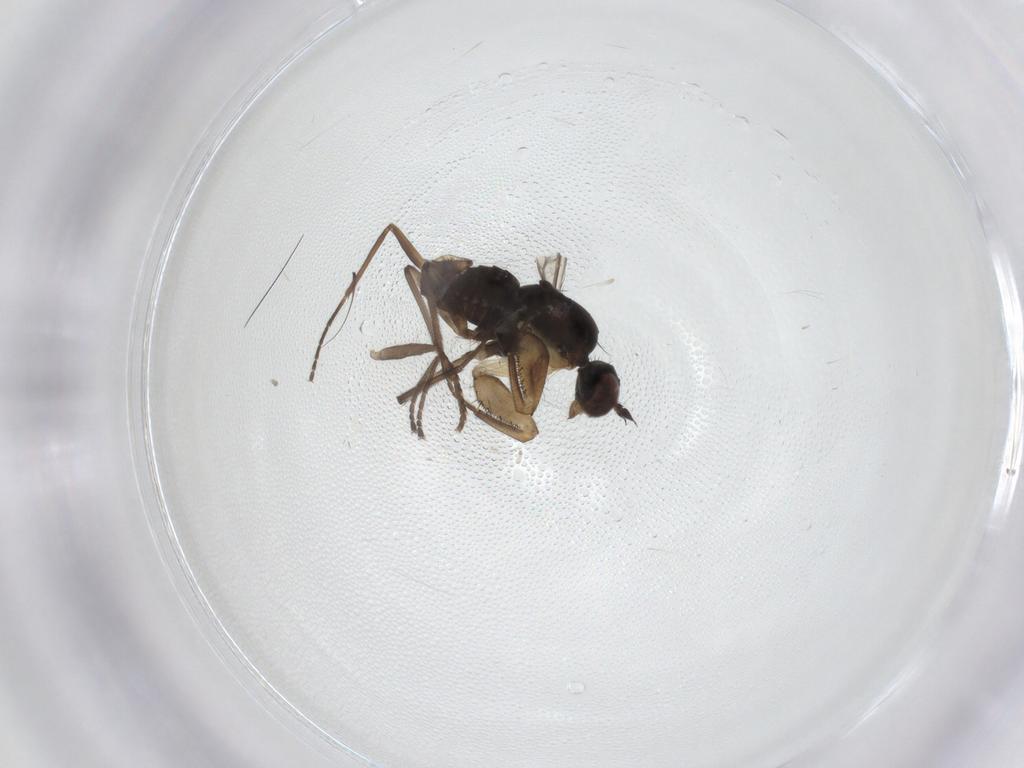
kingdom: Animalia
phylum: Arthropoda
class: Insecta
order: Diptera
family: Empididae
